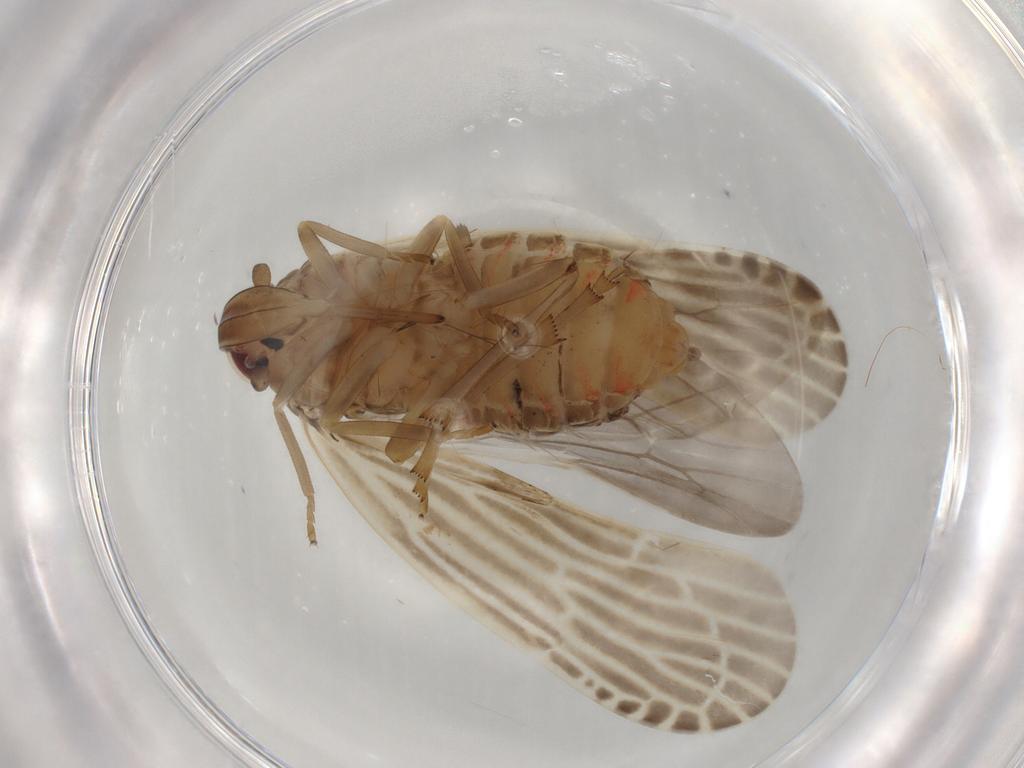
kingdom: Animalia
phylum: Arthropoda
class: Insecta
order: Hemiptera
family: Achilidae
